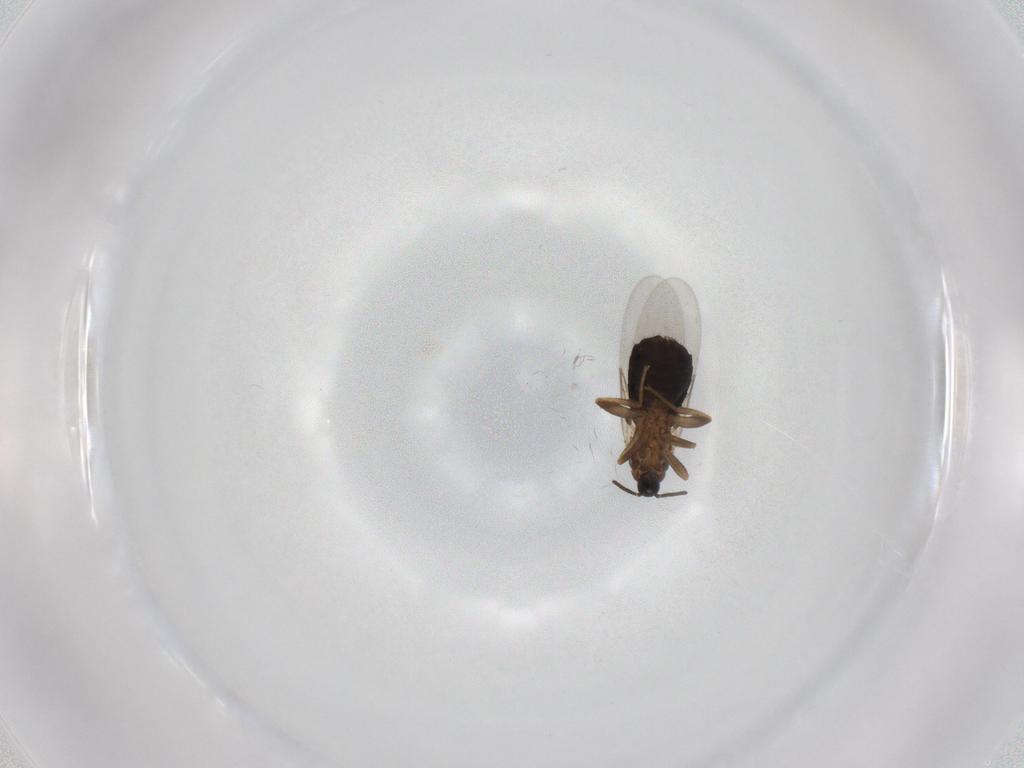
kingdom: Animalia
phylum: Arthropoda
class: Insecta
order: Diptera
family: Scatopsidae
